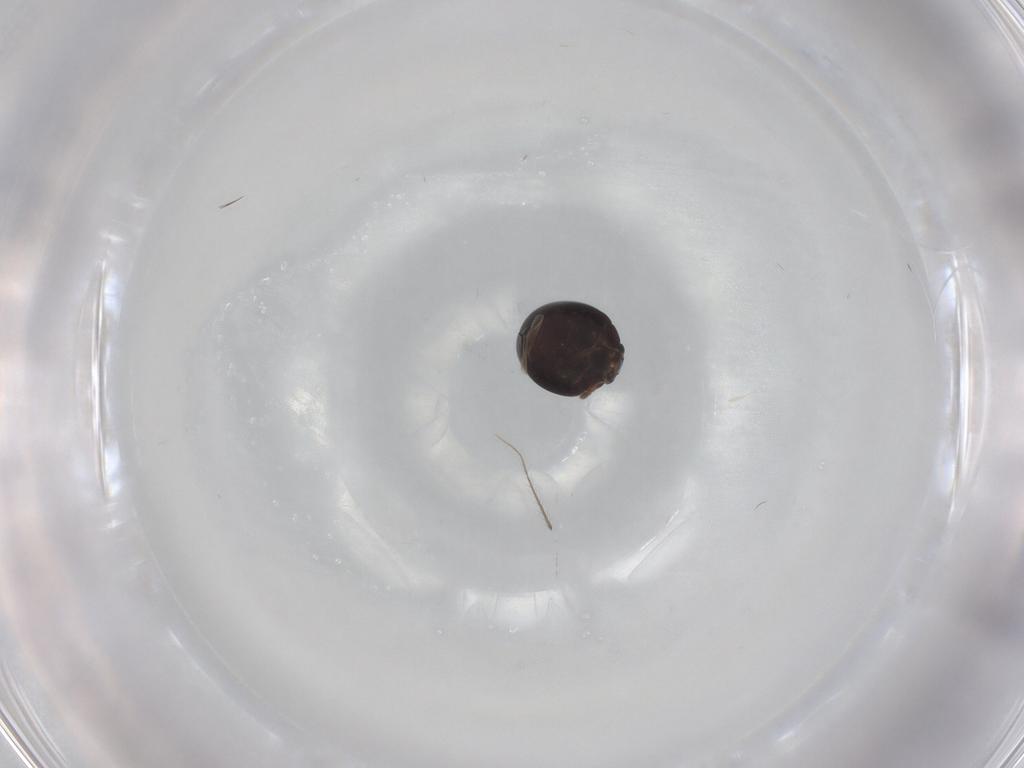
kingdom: Animalia
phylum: Arthropoda
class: Insecta
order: Coleoptera
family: Anamorphidae
